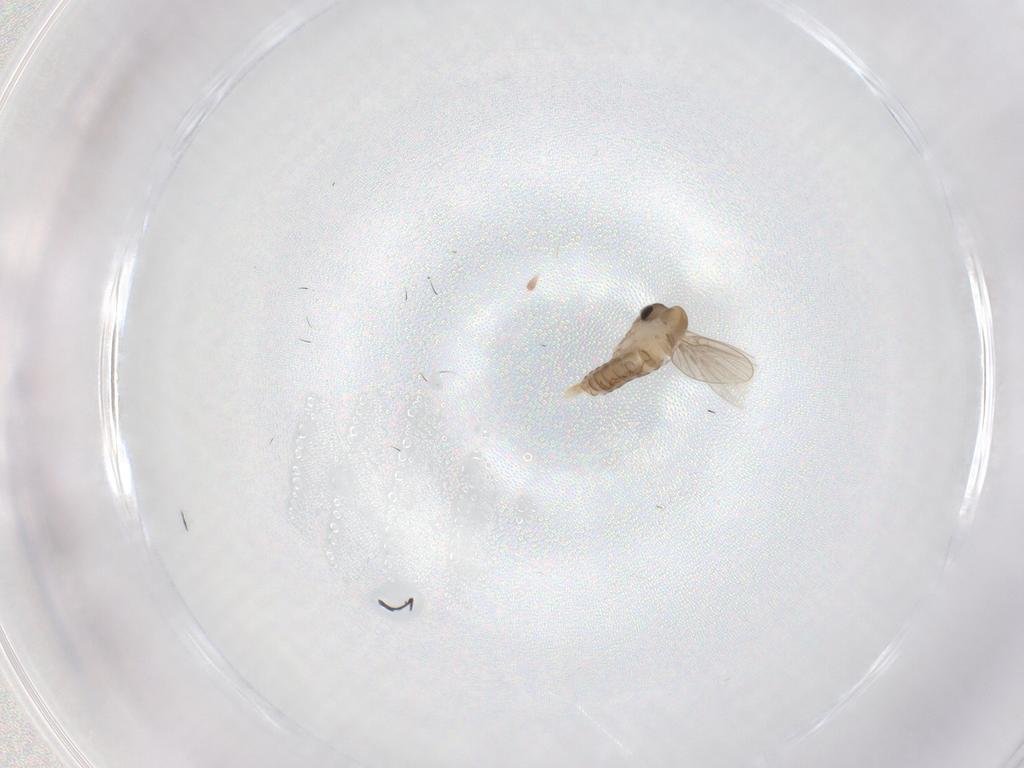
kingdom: Animalia
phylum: Arthropoda
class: Insecta
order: Diptera
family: Psychodidae
